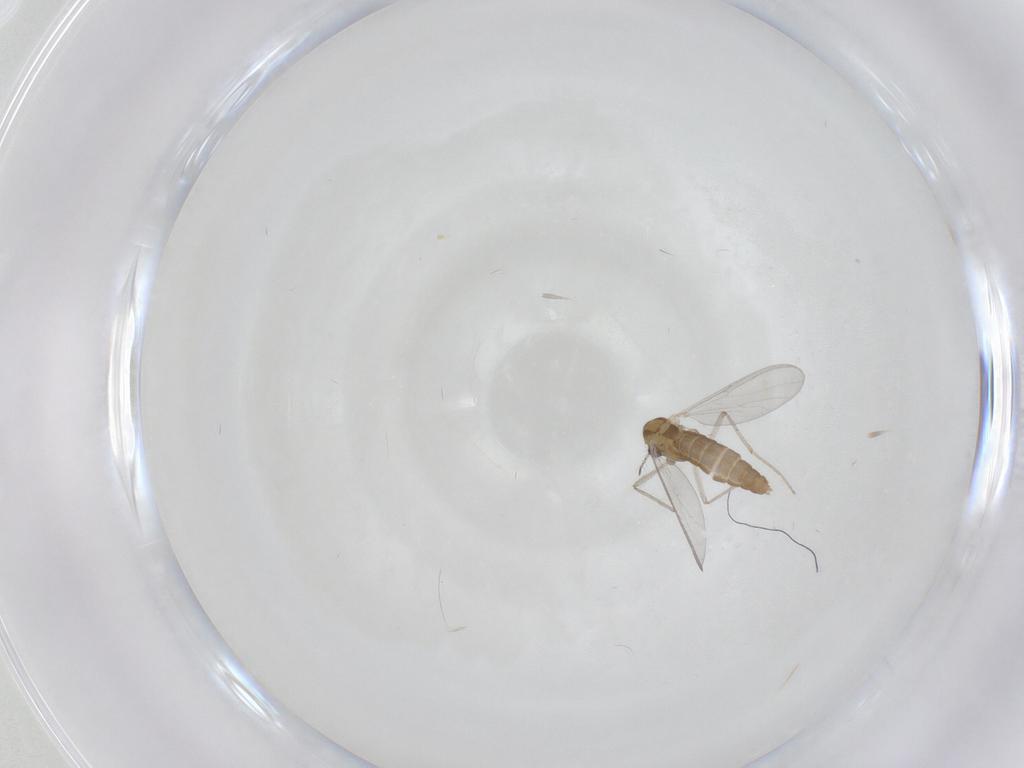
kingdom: Animalia
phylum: Arthropoda
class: Insecta
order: Diptera
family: Chironomidae
